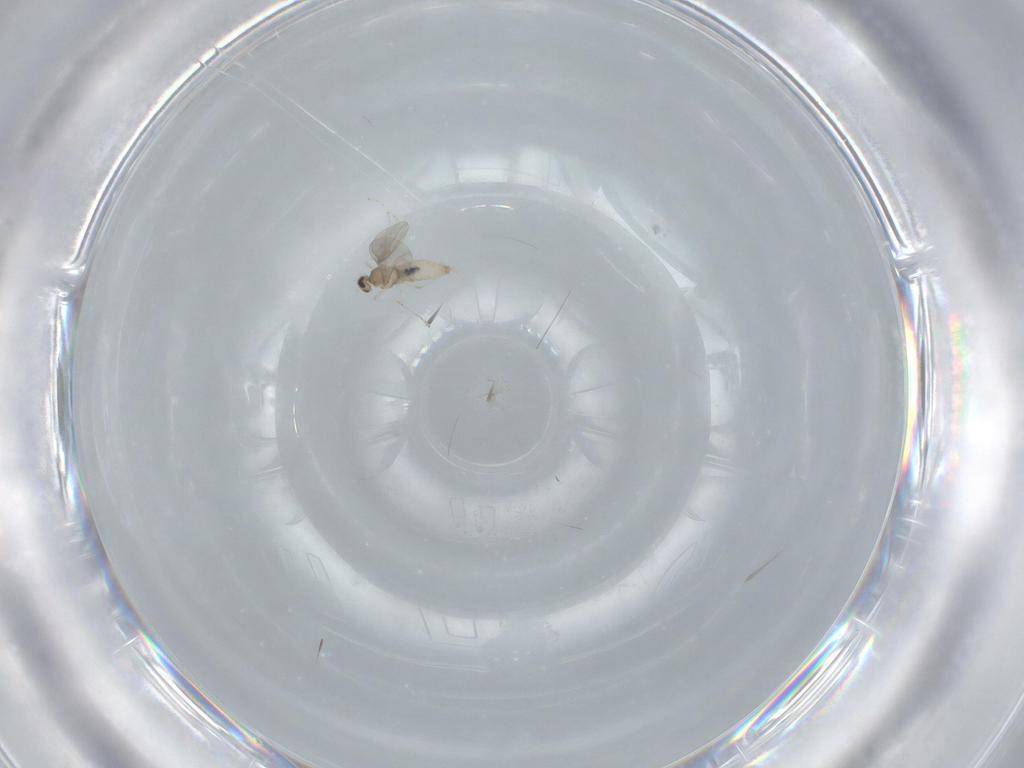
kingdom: Animalia
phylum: Arthropoda
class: Insecta
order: Diptera
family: Cecidomyiidae
